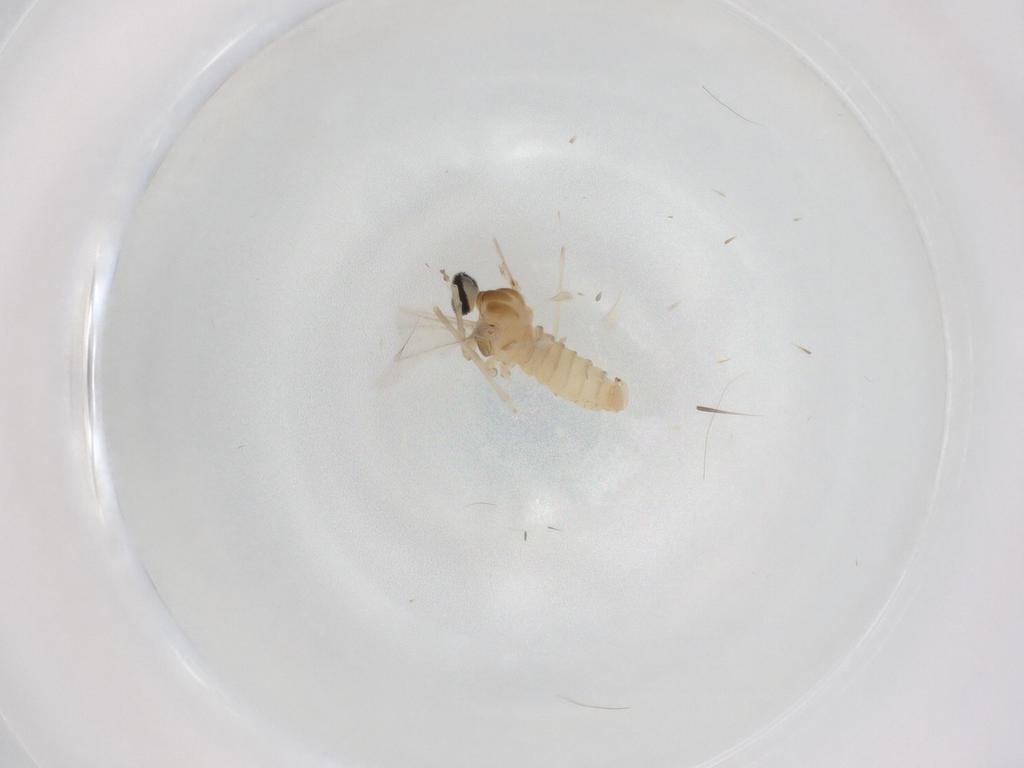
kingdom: Animalia
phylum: Arthropoda
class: Insecta
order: Diptera
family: Cecidomyiidae
